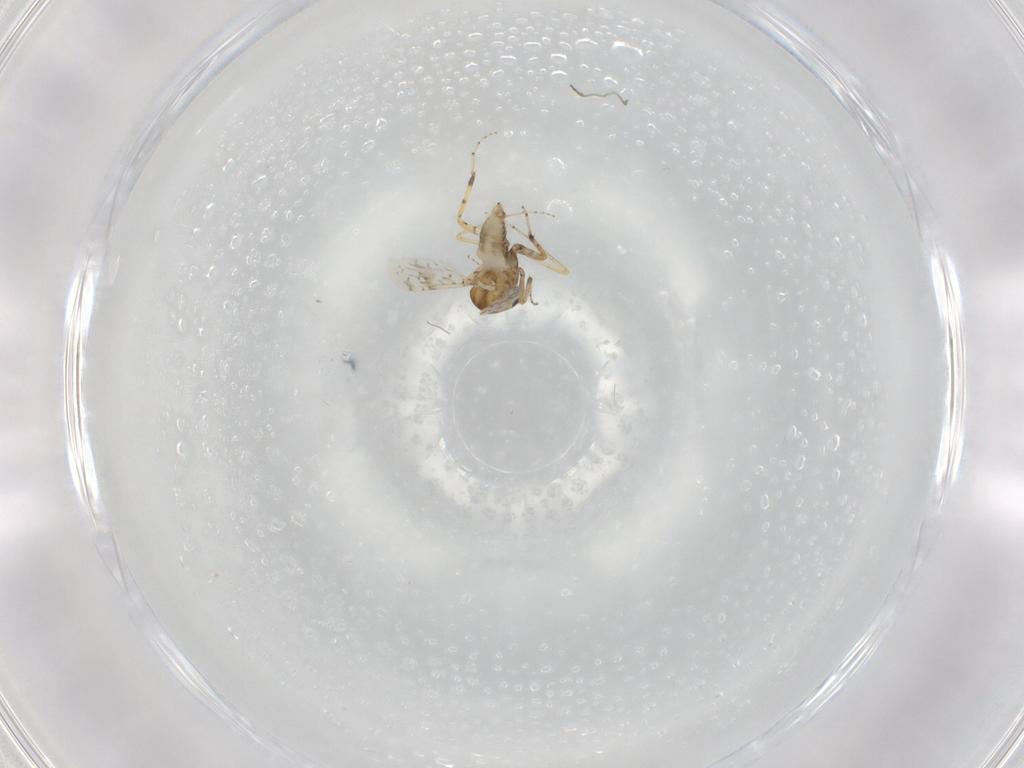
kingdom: Animalia
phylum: Arthropoda
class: Insecta
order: Diptera
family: Ceratopogonidae
